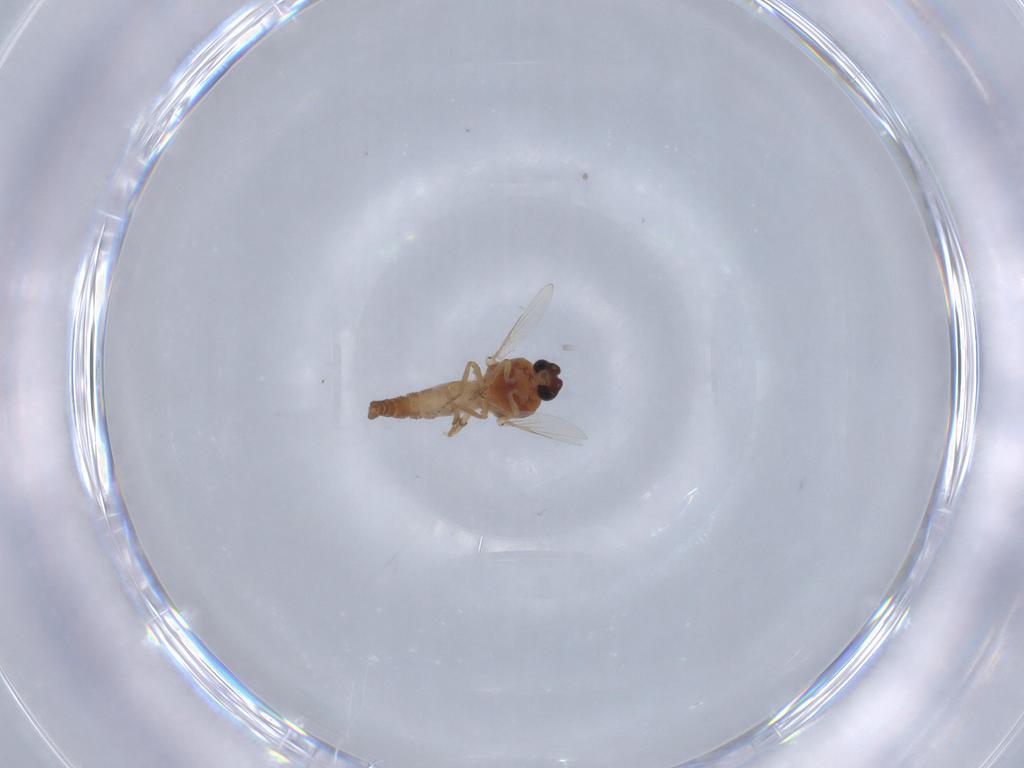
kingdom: Animalia
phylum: Arthropoda
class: Insecta
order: Diptera
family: Ceratopogonidae
